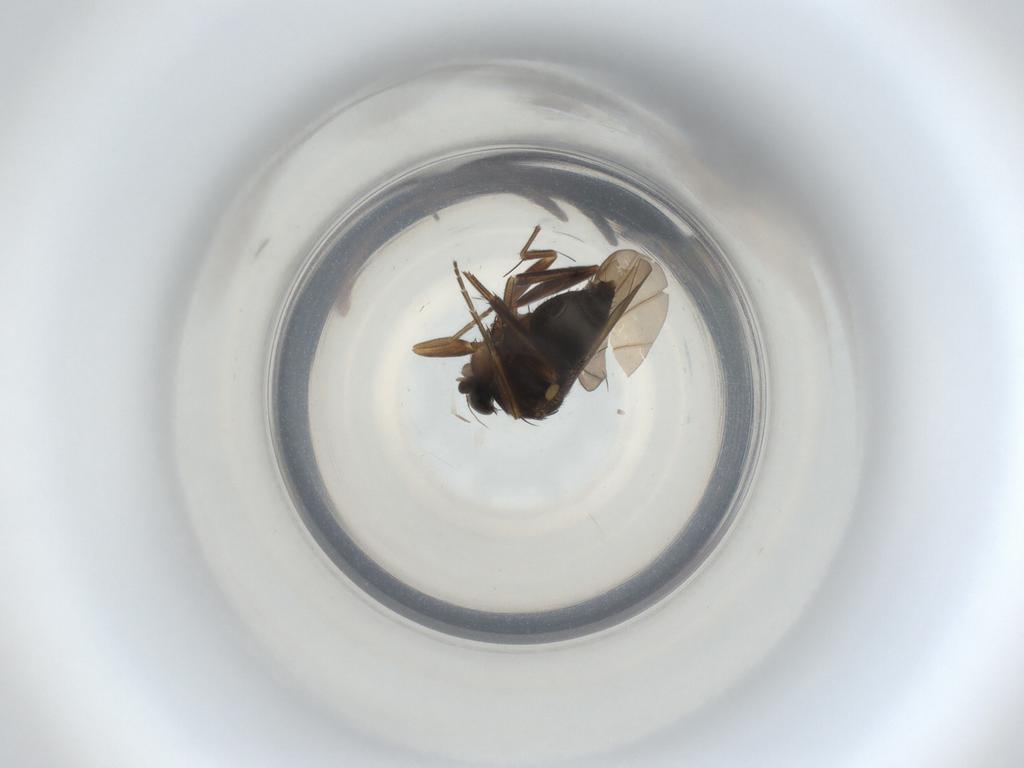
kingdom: Animalia
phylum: Arthropoda
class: Insecta
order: Diptera
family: Phoridae
